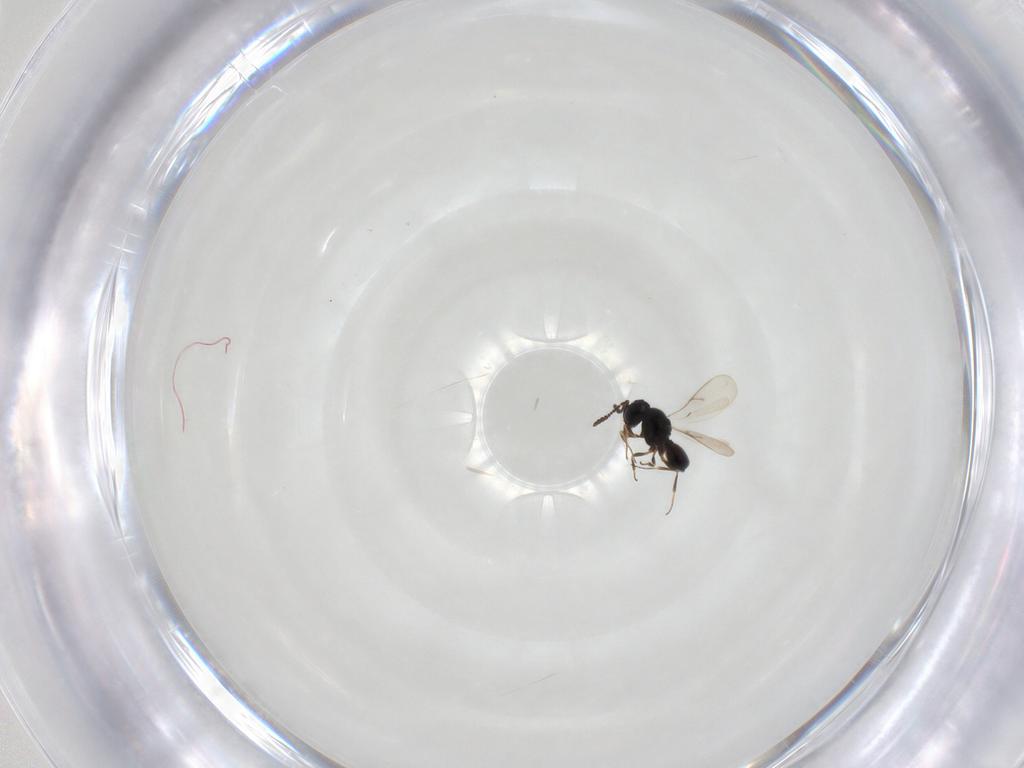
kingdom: Animalia
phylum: Arthropoda
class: Insecta
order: Hymenoptera
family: Scelionidae
